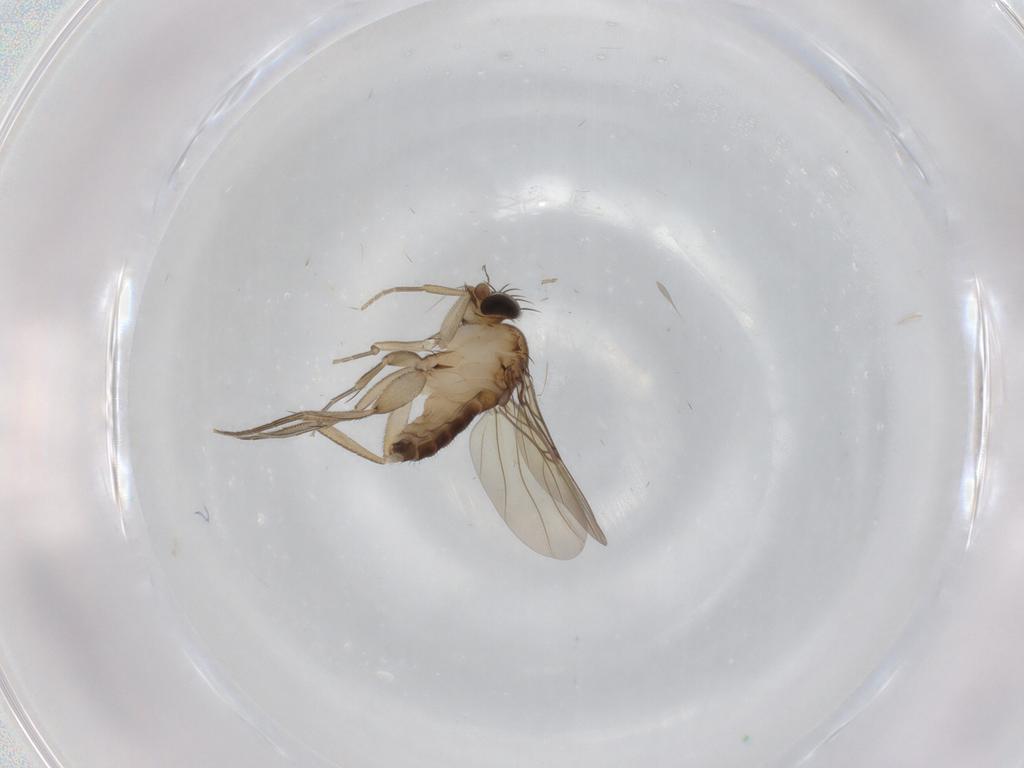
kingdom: Animalia
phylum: Arthropoda
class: Insecta
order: Diptera
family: Phoridae
